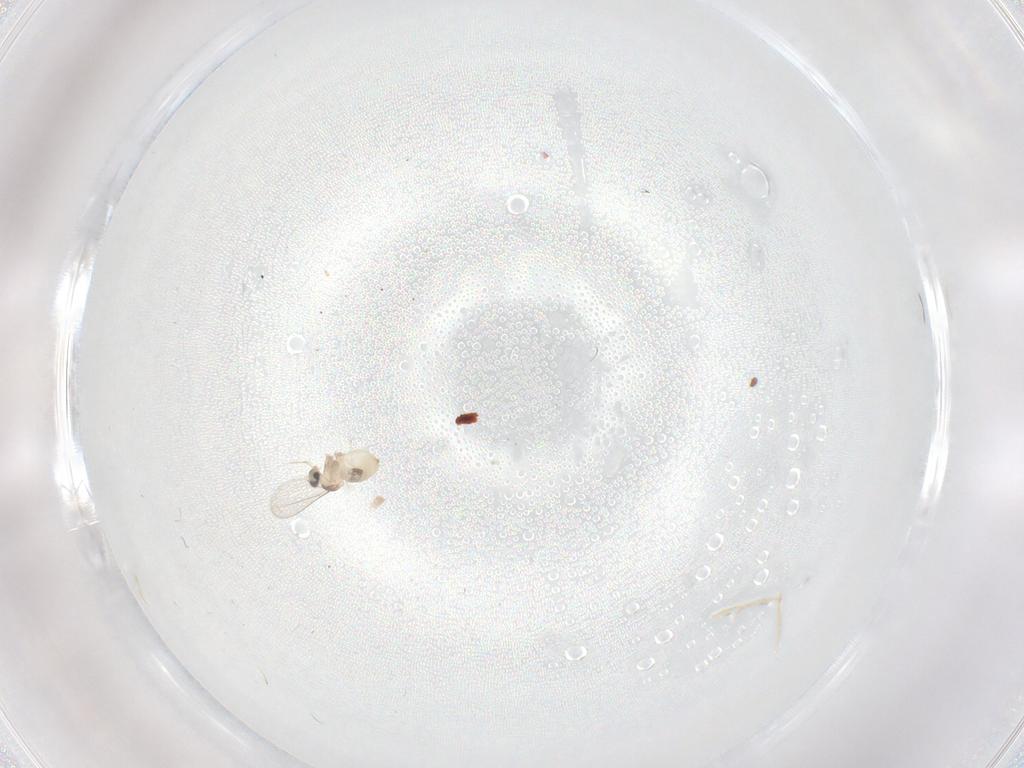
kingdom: Animalia
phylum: Arthropoda
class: Insecta
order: Diptera
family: Cecidomyiidae
